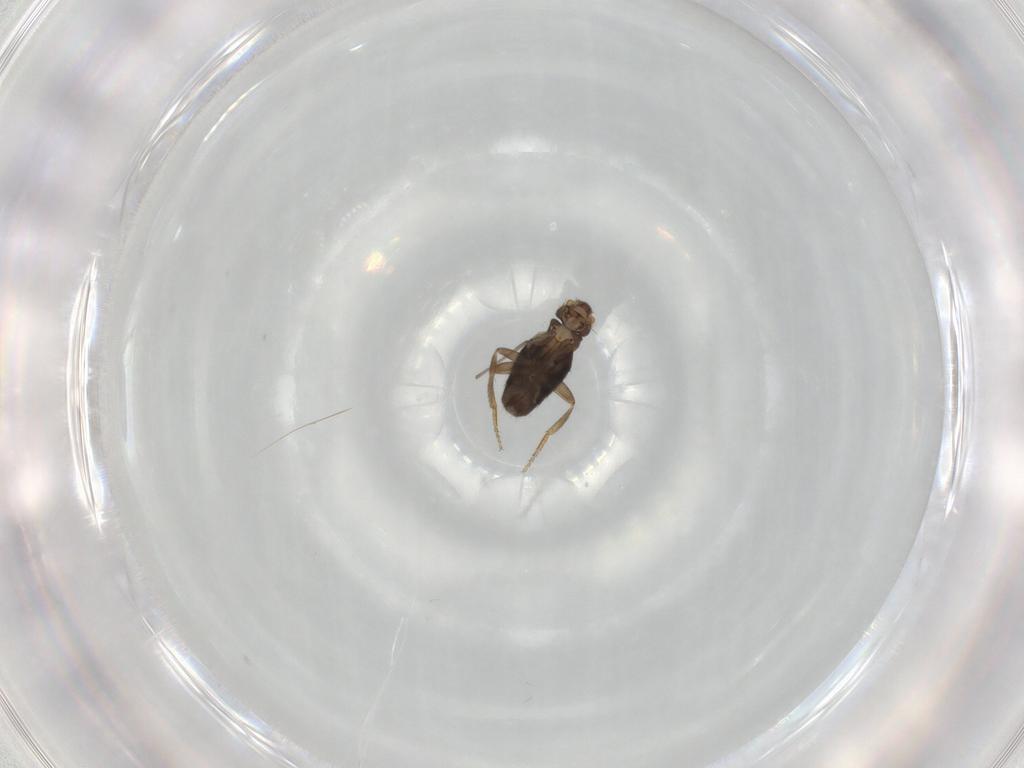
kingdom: Animalia
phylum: Arthropoda
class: Insecta
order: Diptera
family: Phoridae
